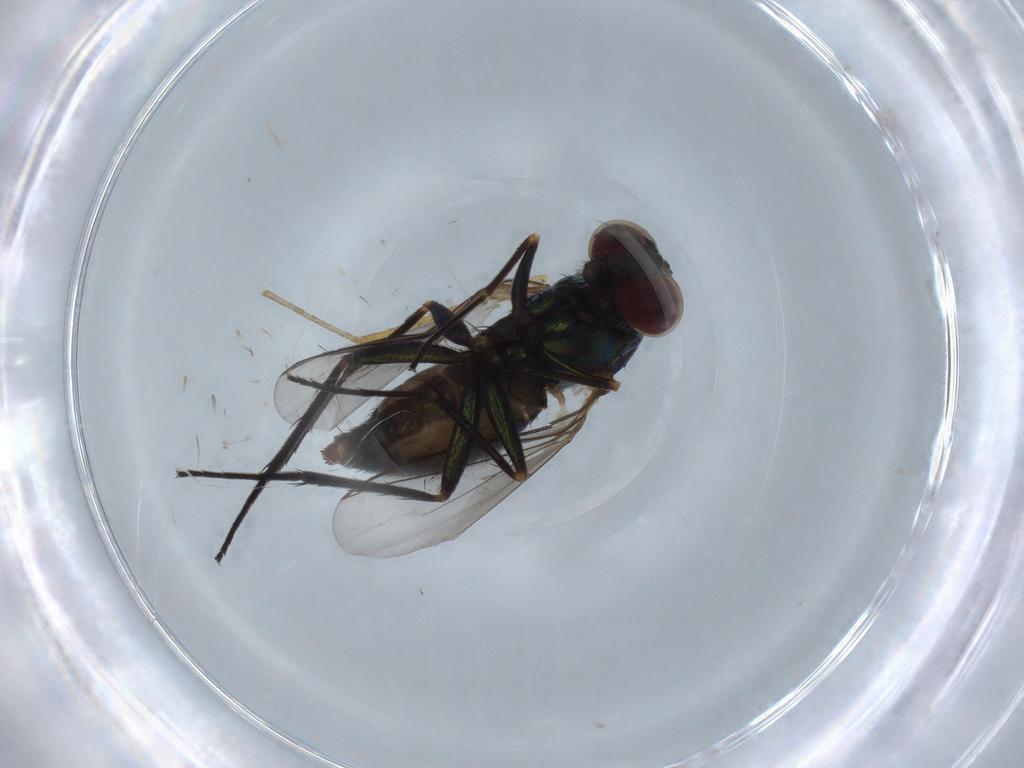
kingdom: Animalia
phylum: Arthropoda
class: Insecta
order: Diptera
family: Dolichopodidae
